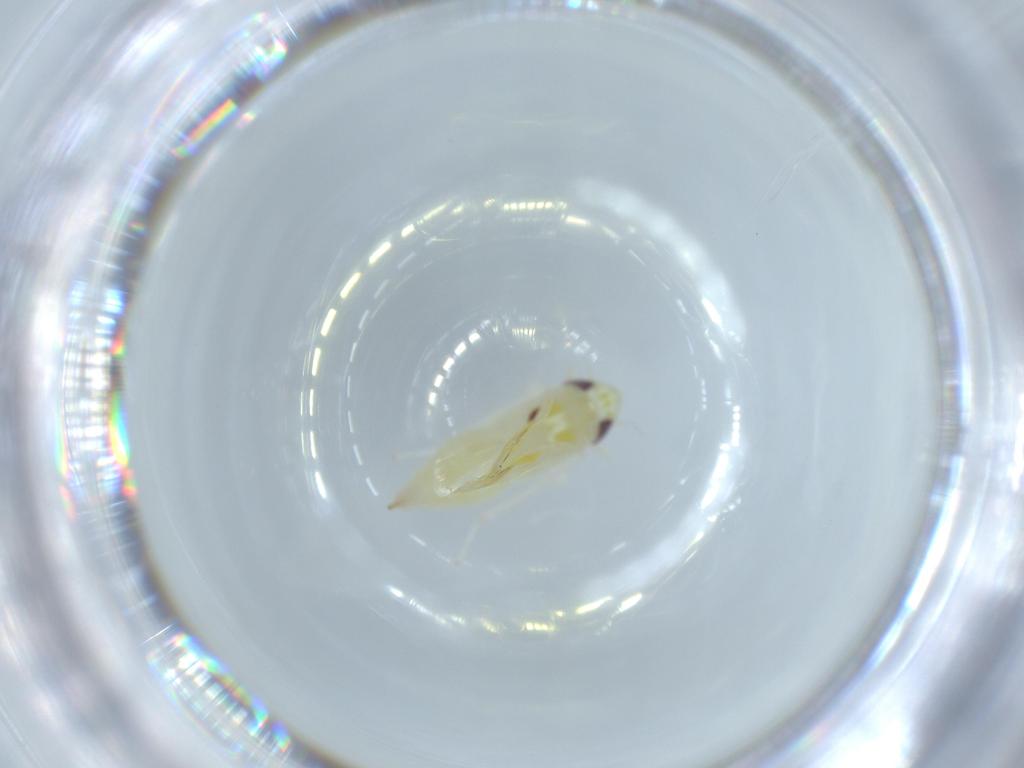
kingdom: Animalia
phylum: Arthropoda
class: Insecta
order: Hemiptera
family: Cicadellidae
